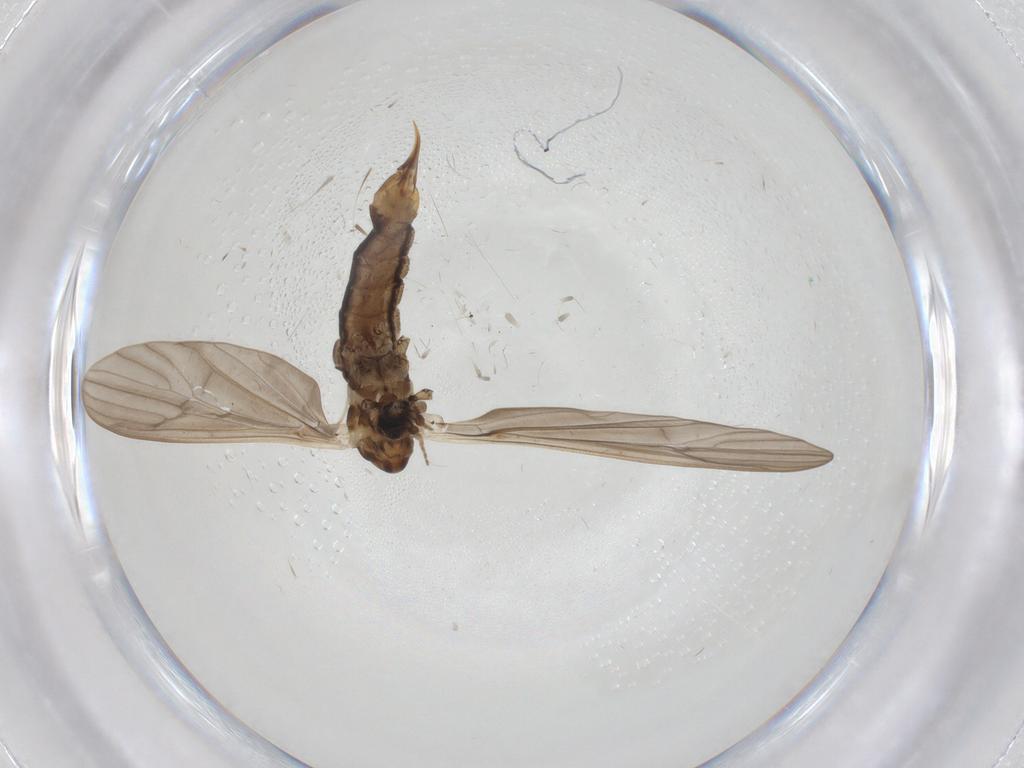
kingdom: Animalia
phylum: Arthropoda
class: Insecta
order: Diptera
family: Limoniidae
